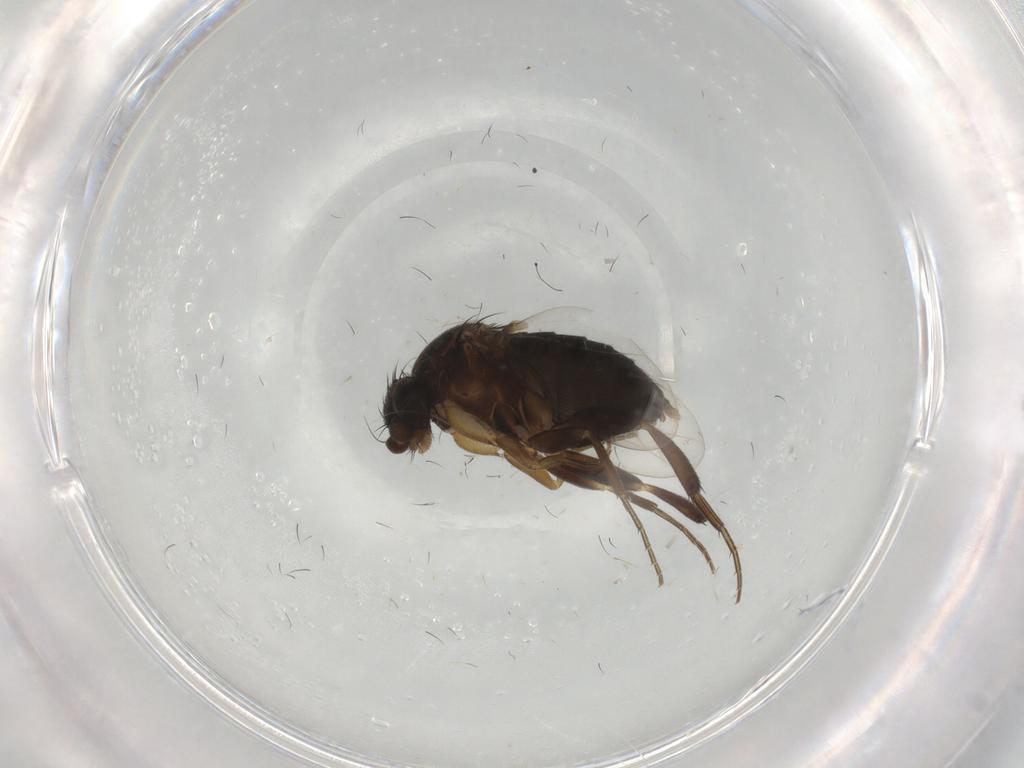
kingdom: Animalia
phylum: Arthropoda
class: Insecta
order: Diptera
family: Phoridae
